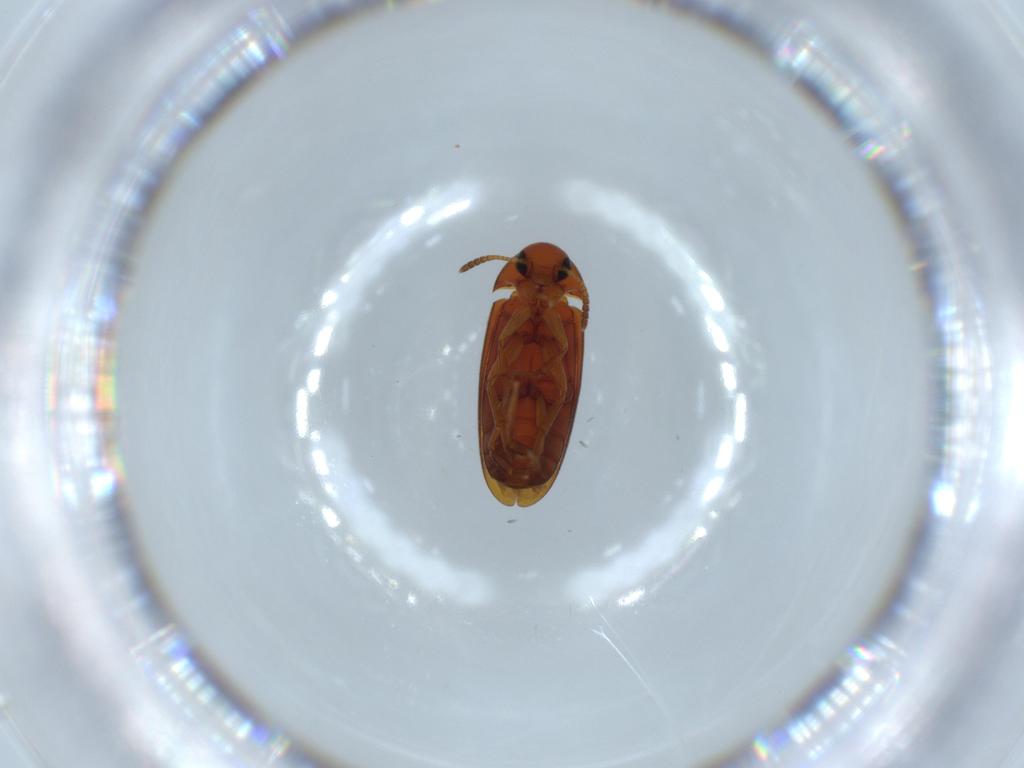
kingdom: Animalia
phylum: Arthropoda
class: Insecta
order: Coleoptera
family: Scraptiidae
